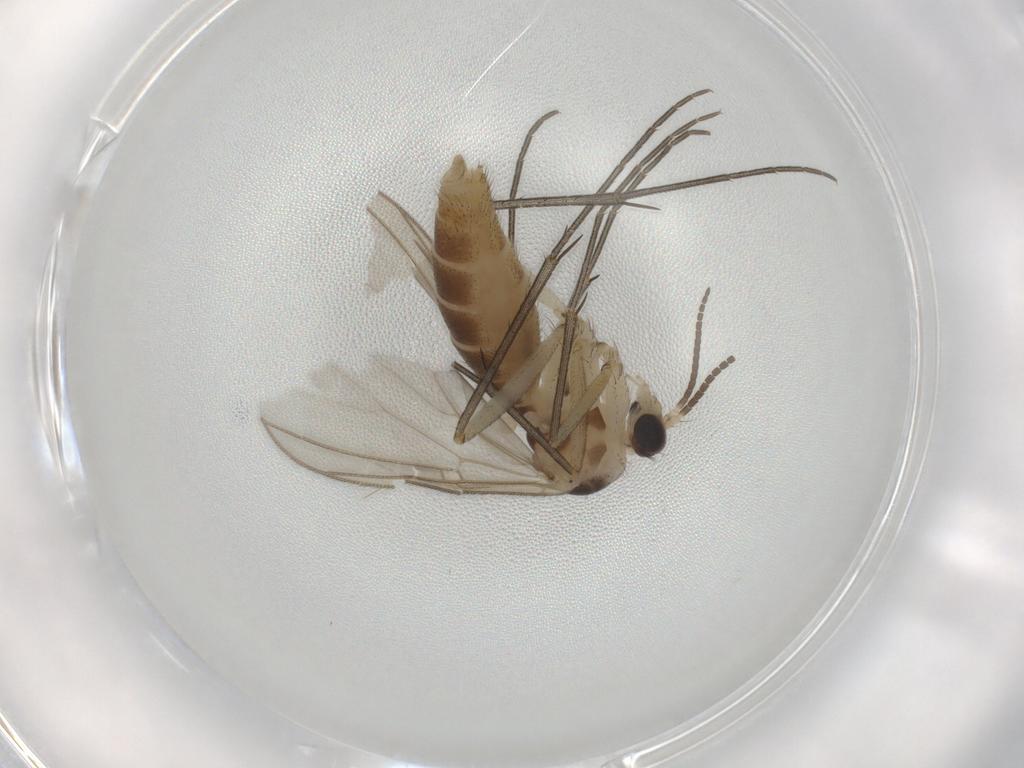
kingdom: Animalia
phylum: Arthropoda
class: Insecta
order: Diptera
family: Mycetophilidae
